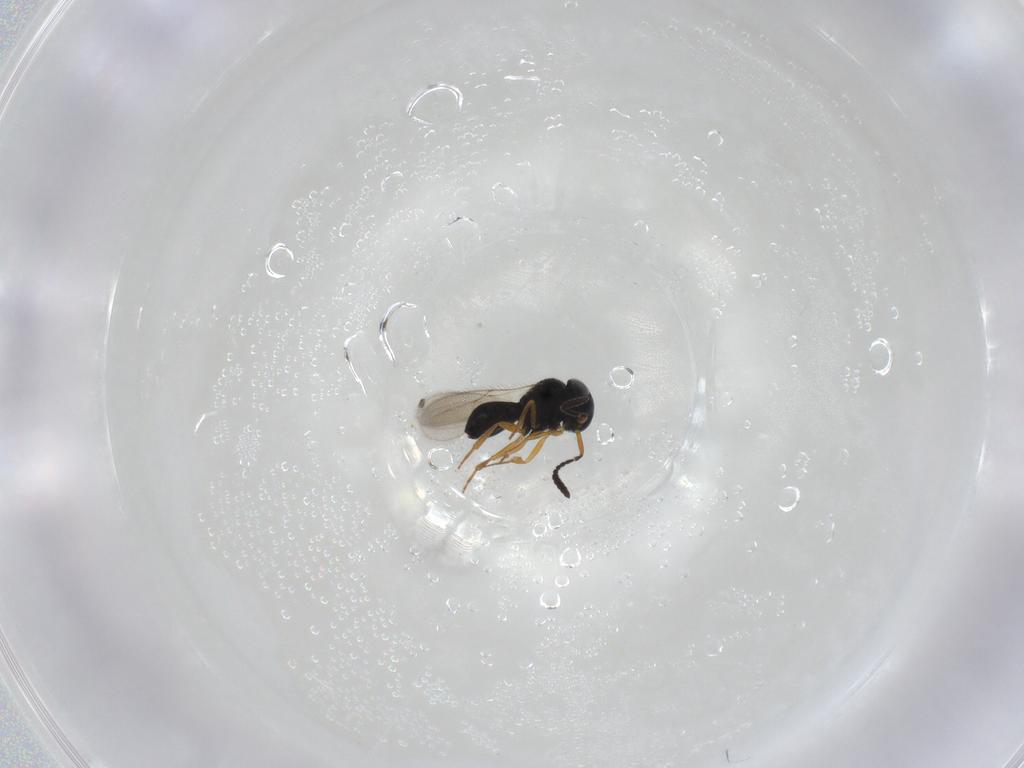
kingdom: Animalia
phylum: Arthropoda
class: Insecta
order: Hymenoptera
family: Scelionidae
